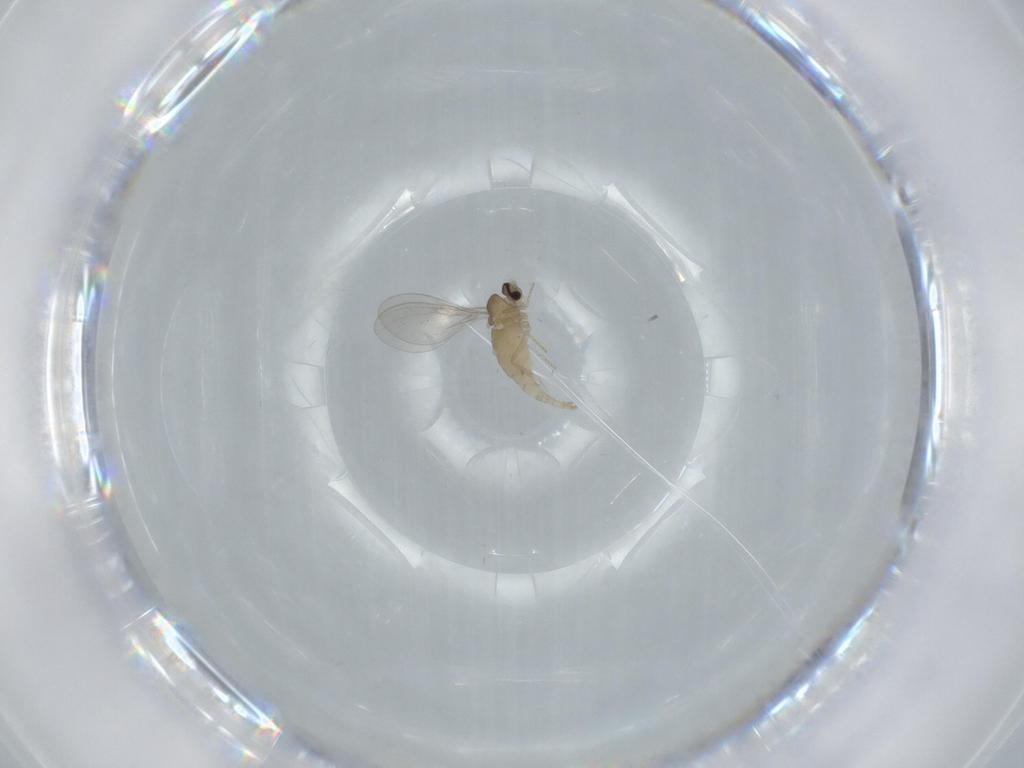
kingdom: Animalia
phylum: Arthropoda
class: Insecta
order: Diptera
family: Cecidomyiidae
